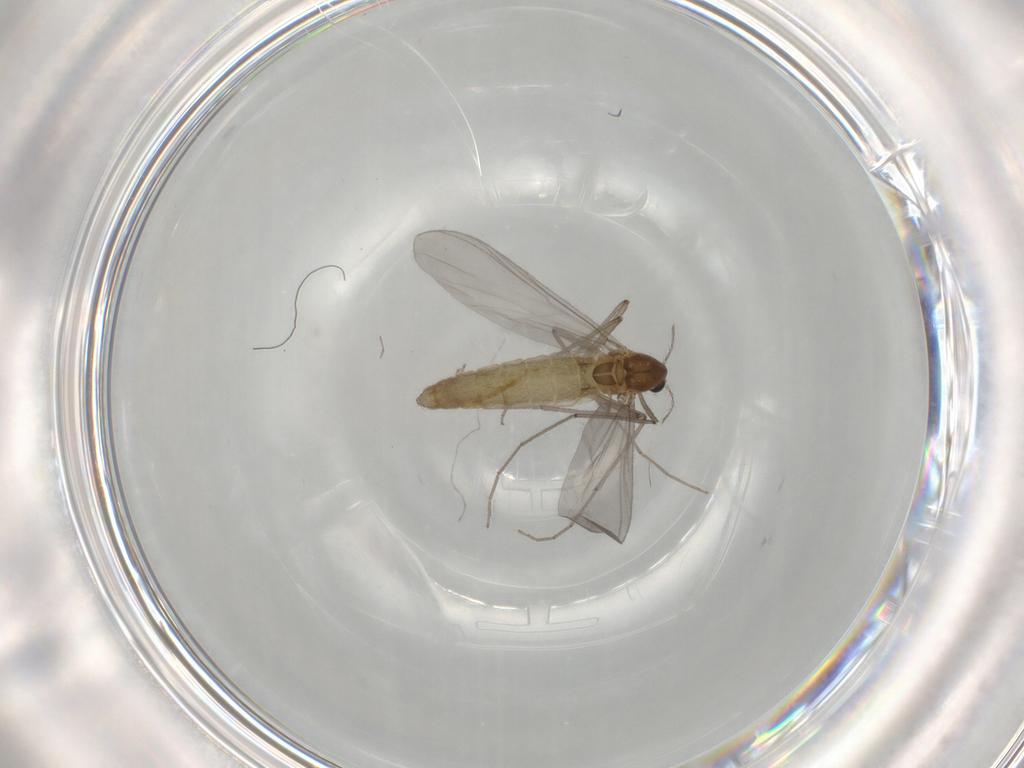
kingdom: Animalia
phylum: Arthropoda
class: Insecta
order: Diptera
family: Chironomidae
